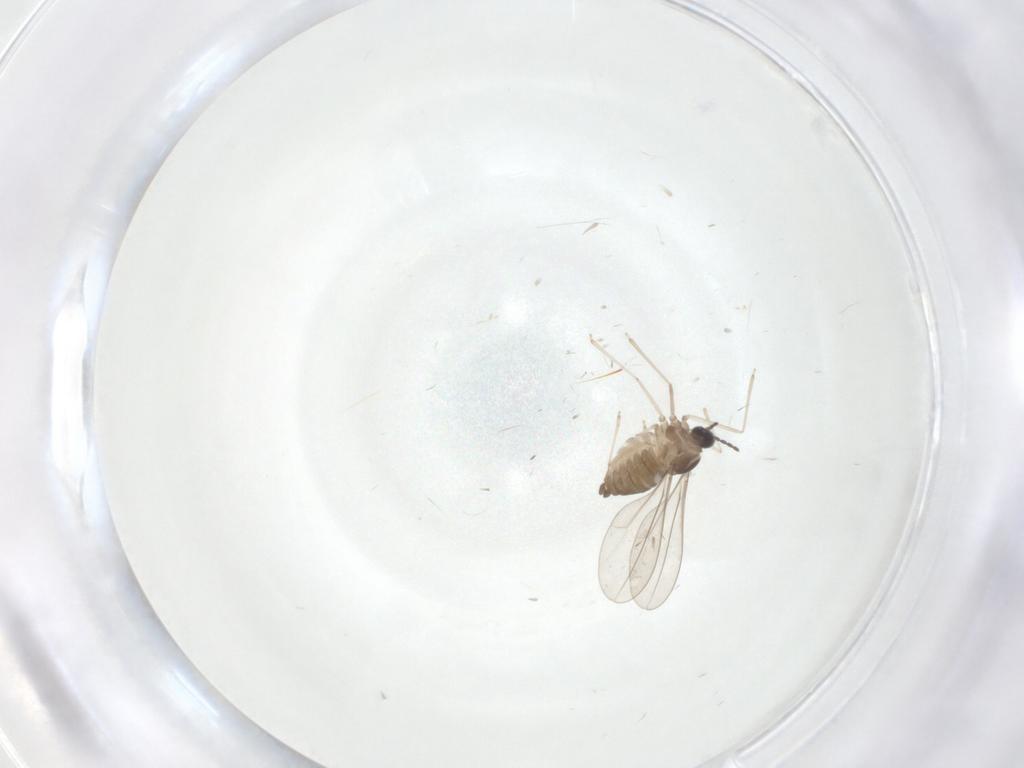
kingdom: Animalia
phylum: Arthropoda
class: Insecta
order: Diptera
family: Cecidomyiidae
